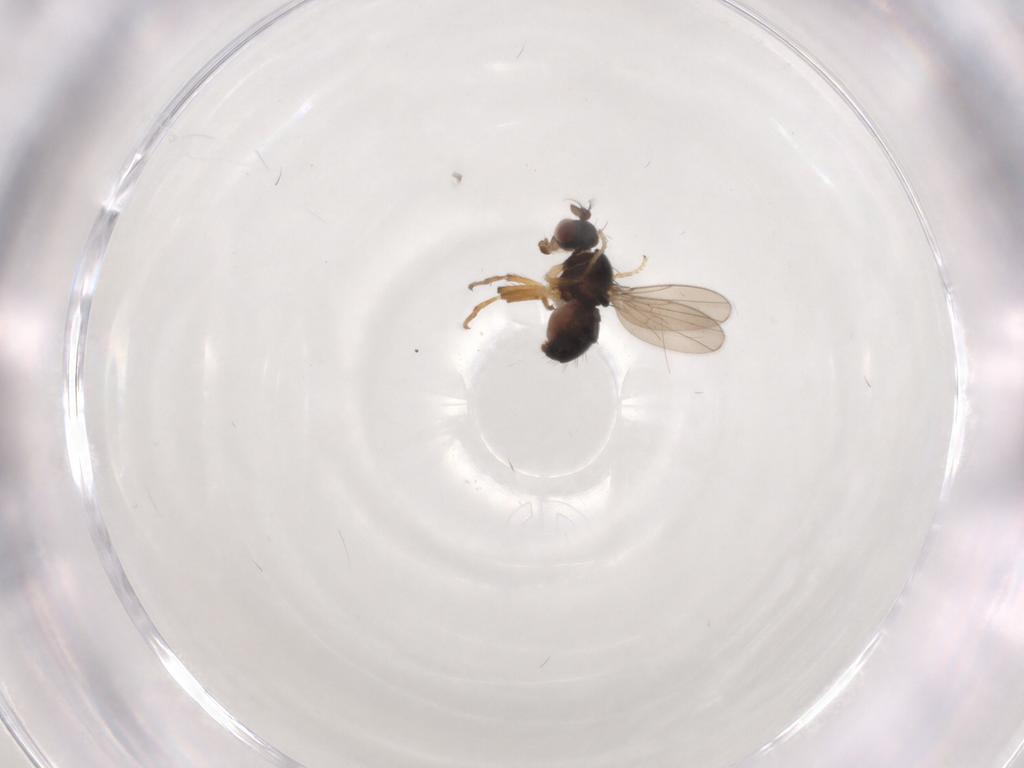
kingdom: Animalia
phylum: Arthropoda
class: Insecta
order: Diptera
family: Ephydridae
